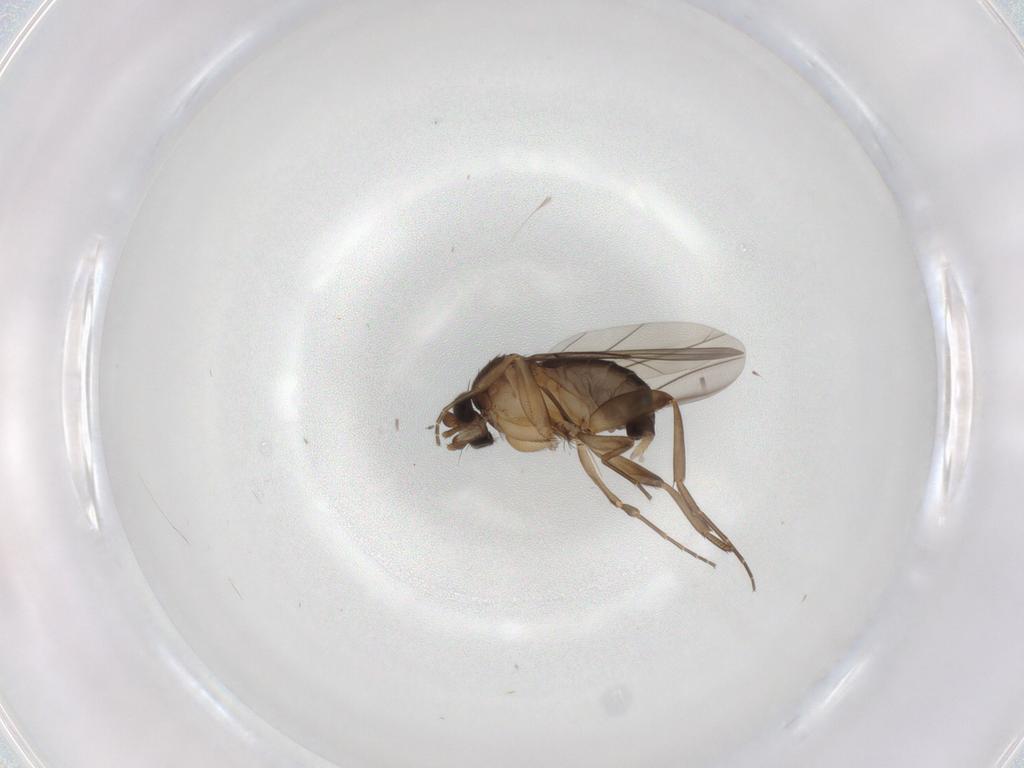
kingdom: Animalia
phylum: Arthropoda
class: Insecta
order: Diptera
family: Phoridae
